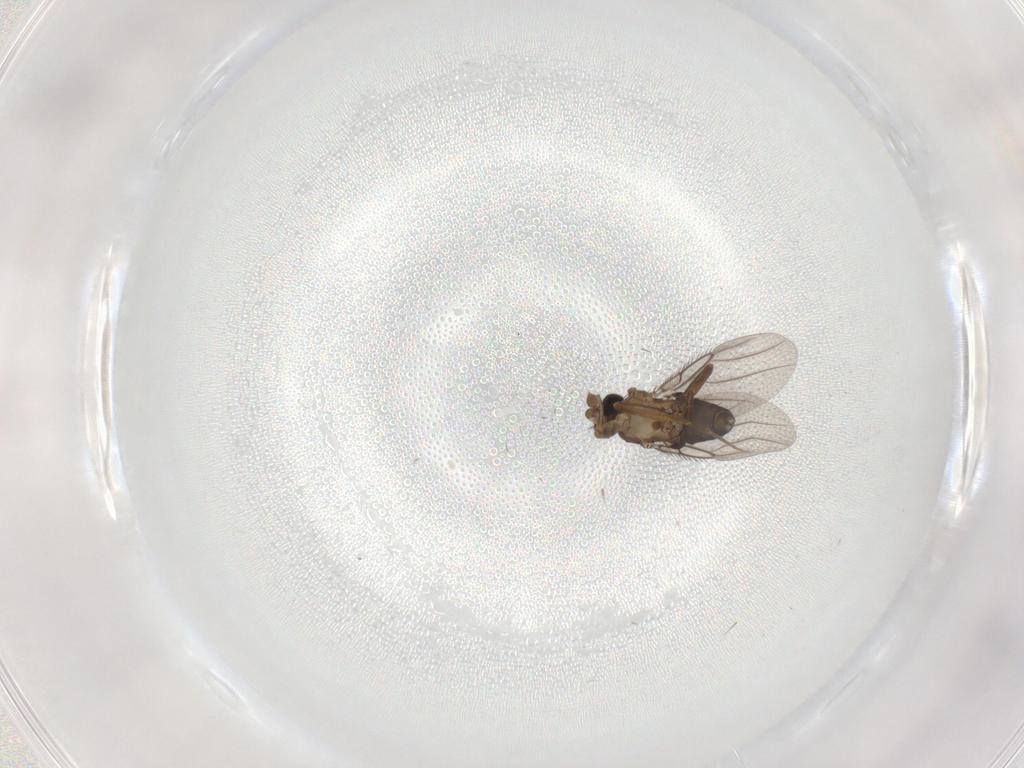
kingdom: Animalia
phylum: Arthropoda
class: Insecta
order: Diptera
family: Phoridae
